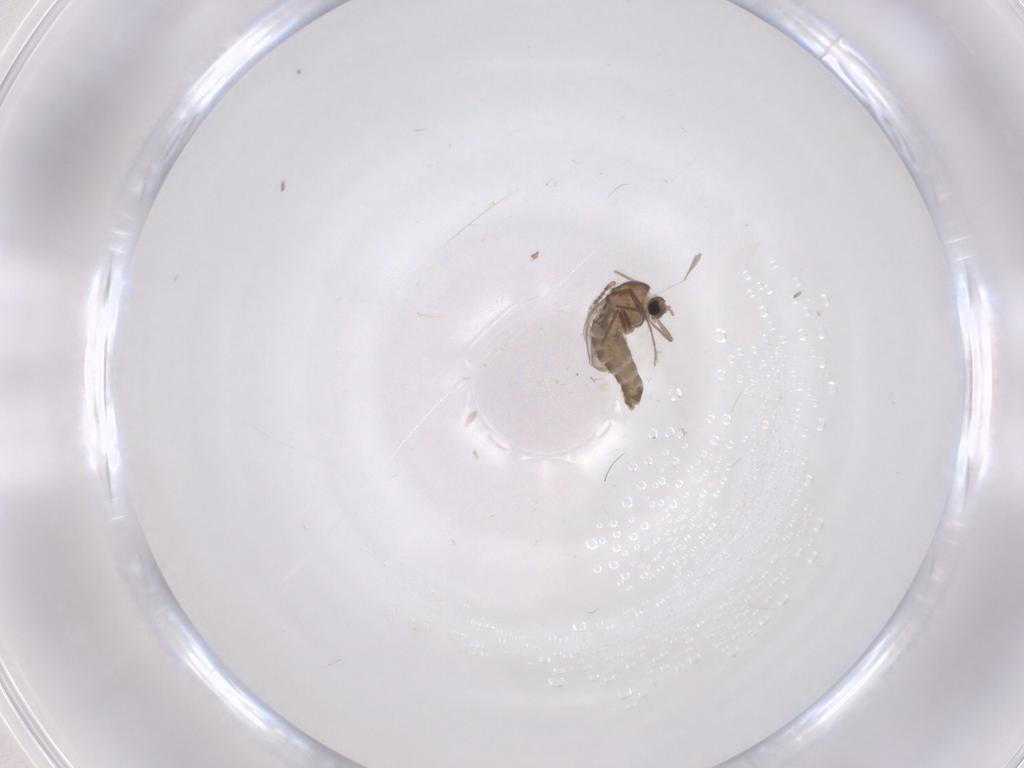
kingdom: Animalia
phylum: Arthropoda
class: Insecta
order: Diptera
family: Chironomidae
